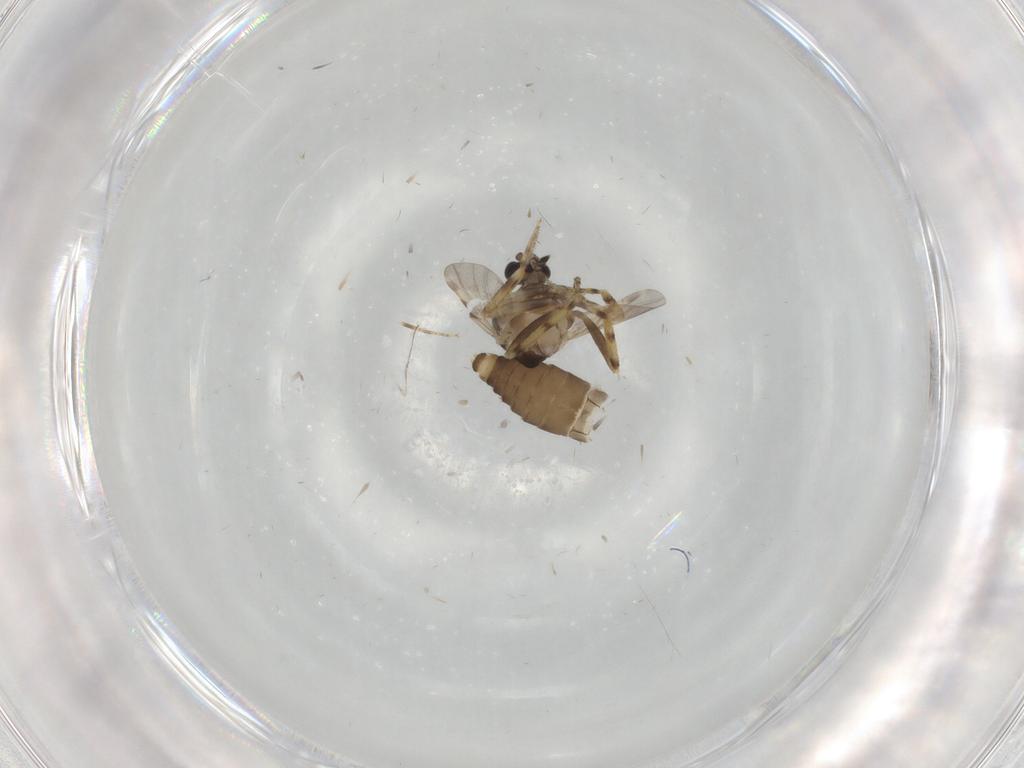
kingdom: Animalia
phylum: Arthropoda
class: Insecta
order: Diptera
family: Ceratopogonidae
